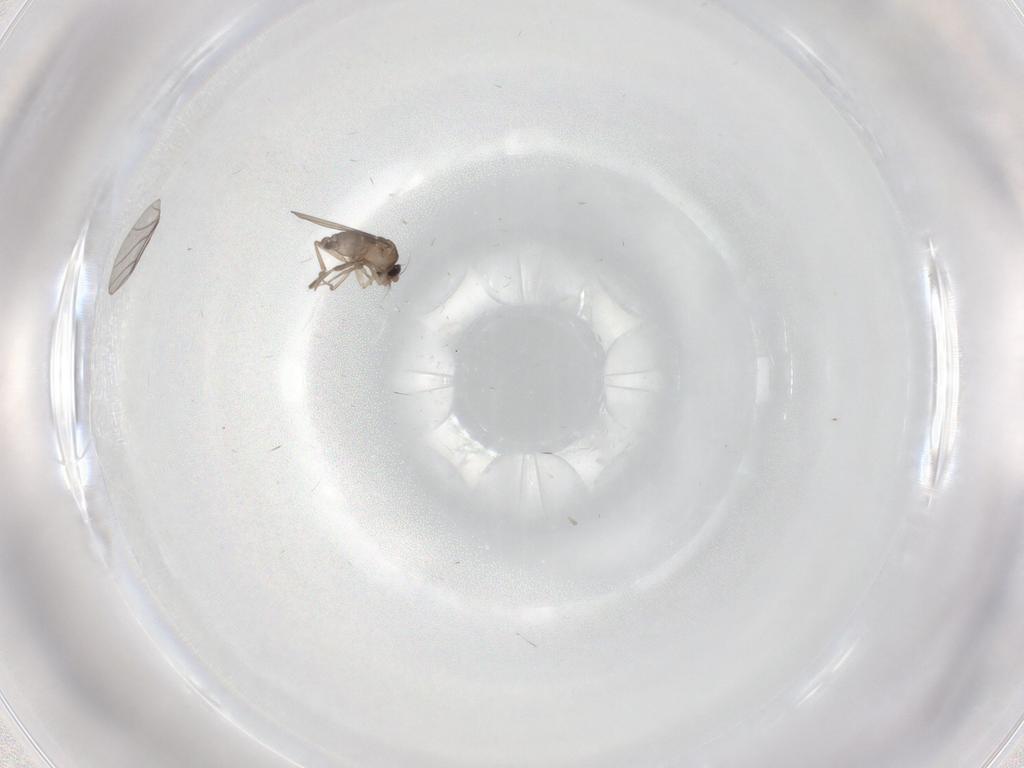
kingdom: Animalia
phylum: Arthropoda
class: Insecta
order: Diptera
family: Phoridae
